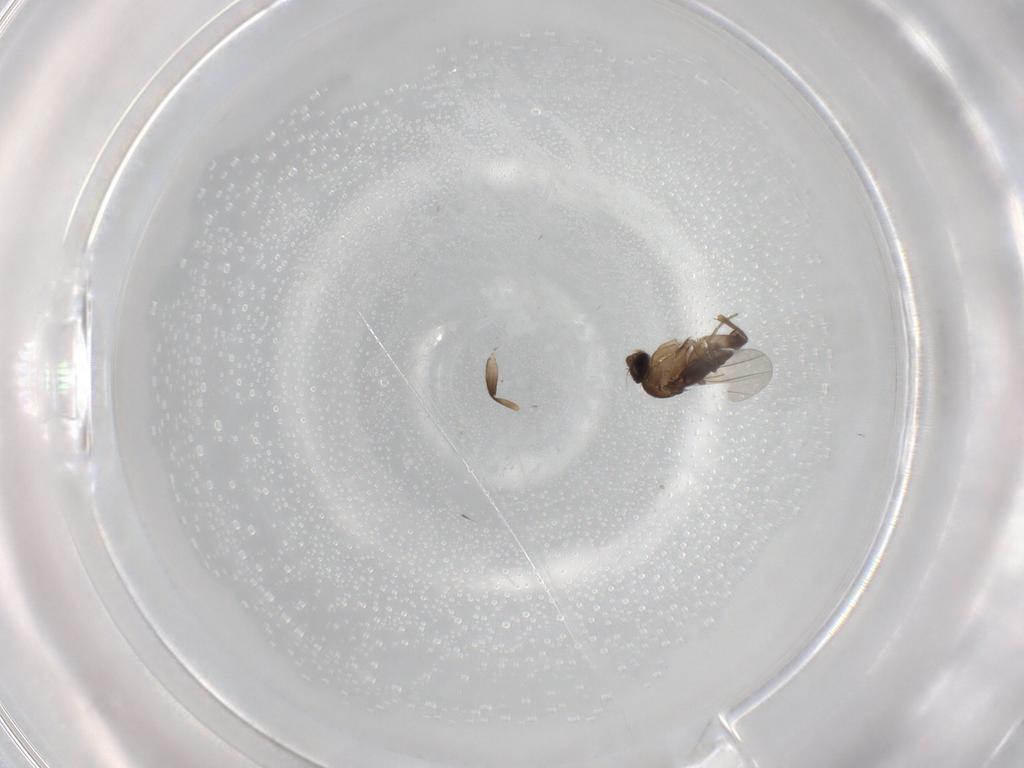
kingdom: Animalia
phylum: Arthropoda
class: Insecta
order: Diptera
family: Phoridae
